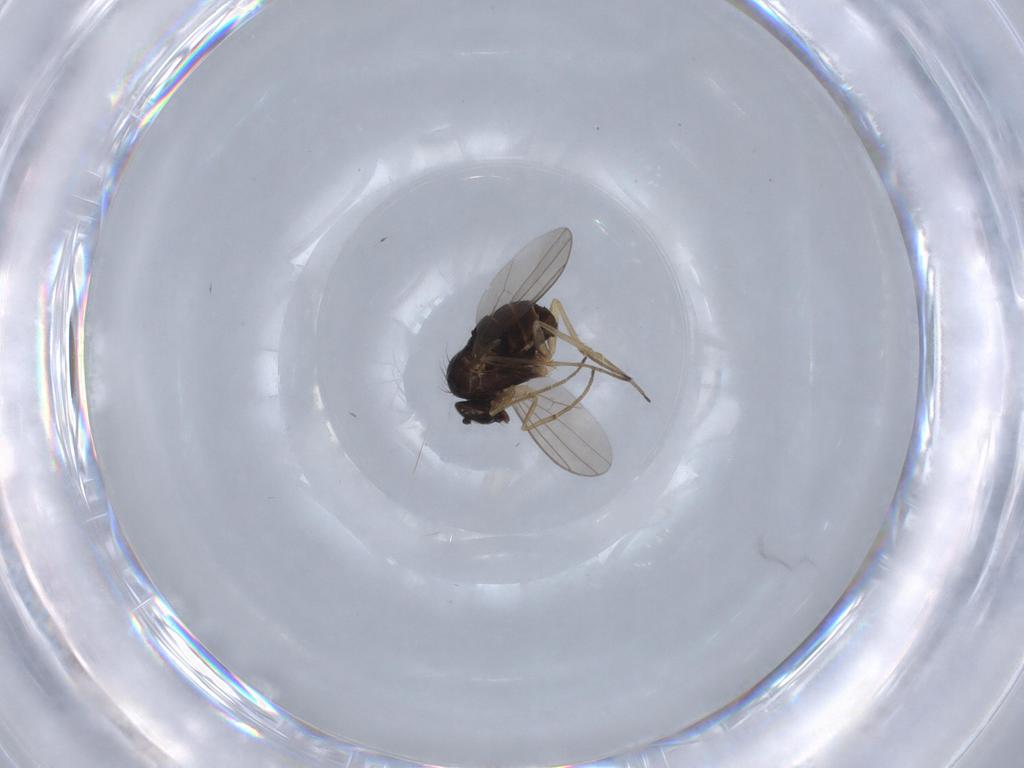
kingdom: Animalia
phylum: Arthropoda
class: Insecta
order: Diptera
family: Dolichopodidae
